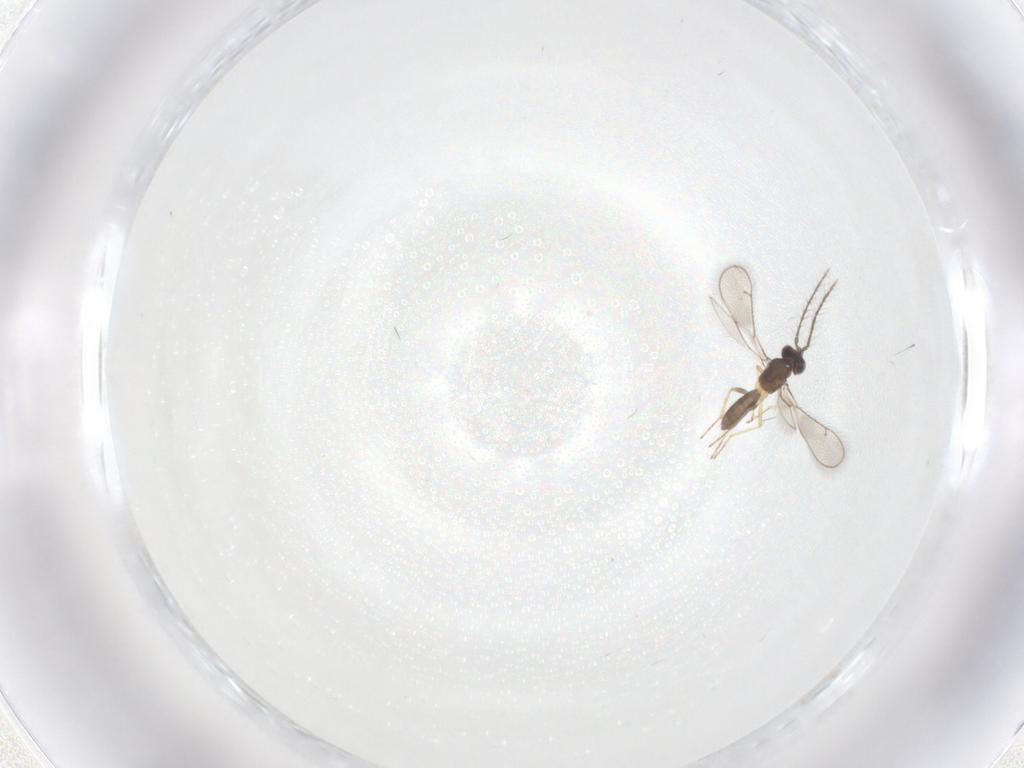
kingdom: Animalia
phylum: Arthropoda
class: Insecta
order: Hymenoptera
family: Eulophidae
